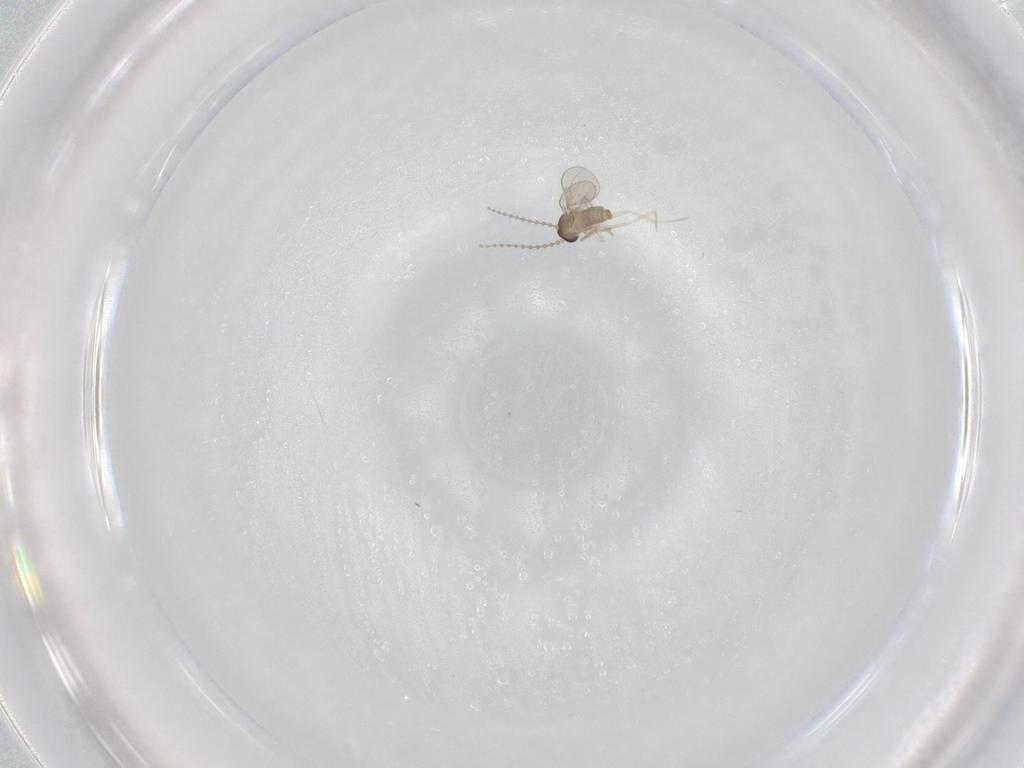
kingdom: Animalia
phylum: Arthropoda
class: Insecta
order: Diptera
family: Cecidomyiidae
